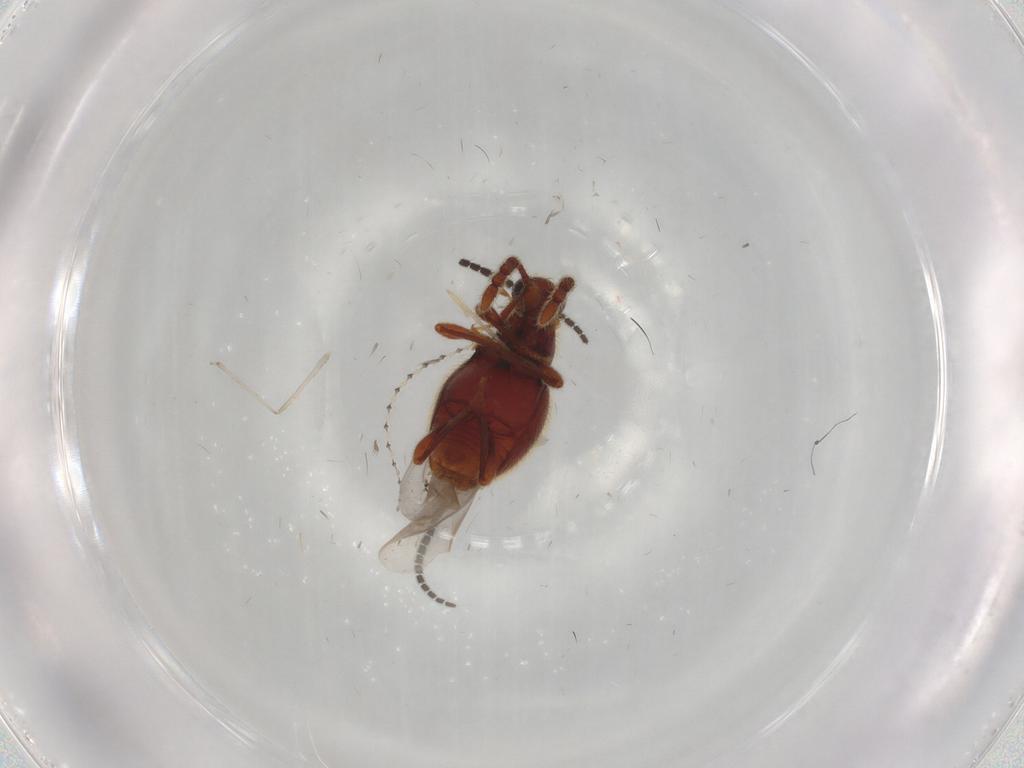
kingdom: Animalia
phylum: Arthropoda
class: Insecta
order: Coleoptera
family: Staphylinidae
